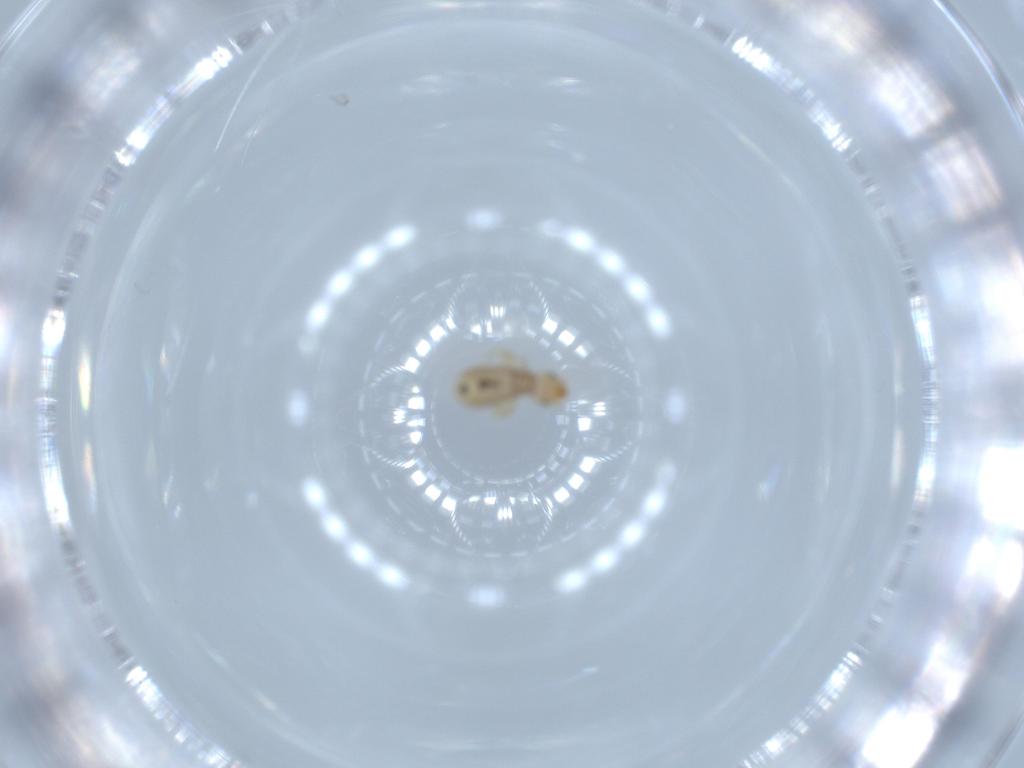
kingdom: Animalia
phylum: Arthropoda
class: Insecta
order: Psocodea
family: Liposcelididae
